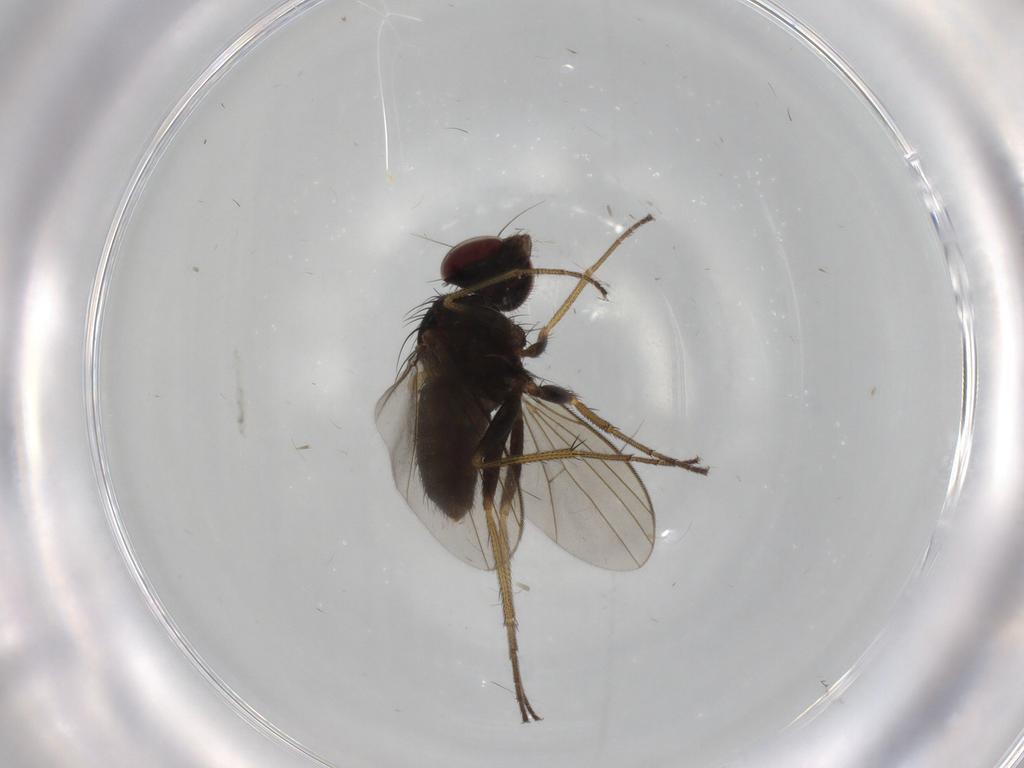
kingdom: Animalia
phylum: Arthropoda
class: Insecta
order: Diptera
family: Dolichopodidae
